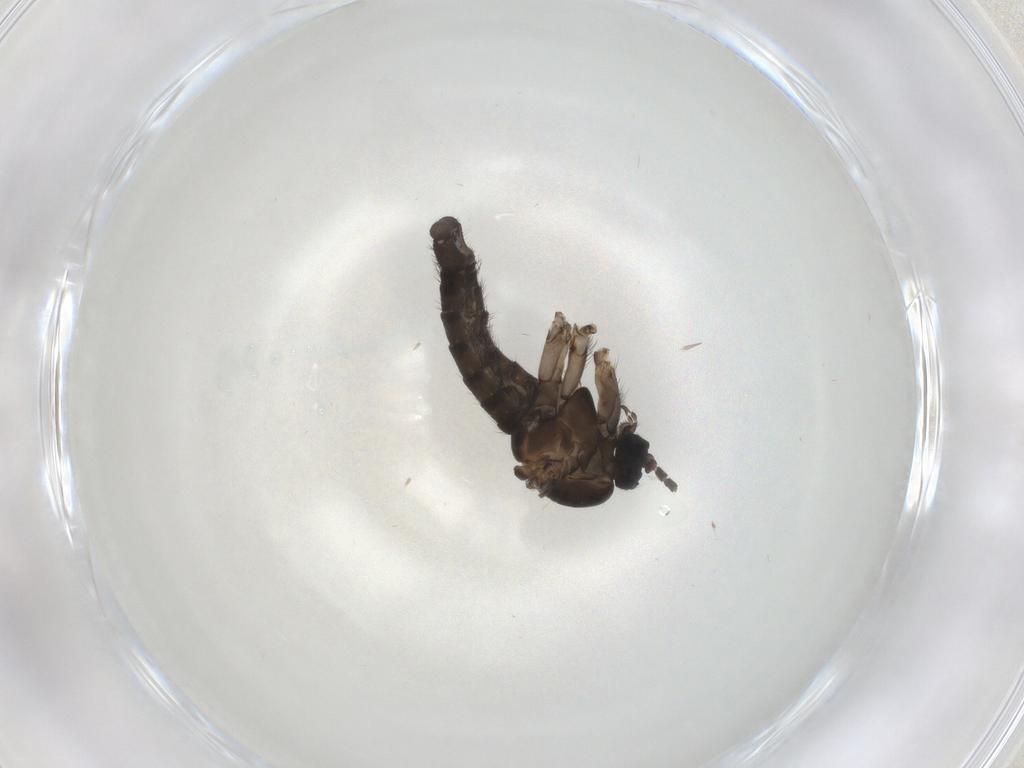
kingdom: Animalia
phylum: Arthropoda
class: Insecta
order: Diptera
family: Sciaridae
